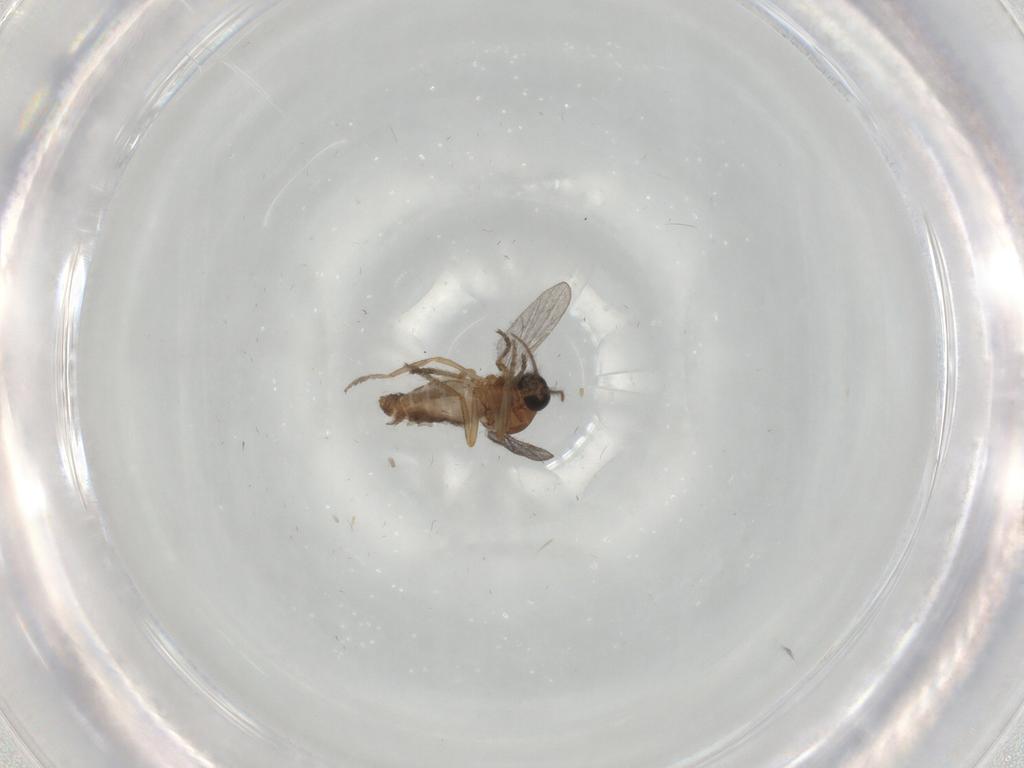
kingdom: Animalia
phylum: Arthropoda
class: Insecta
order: Diptera
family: Ceratopogonidae
